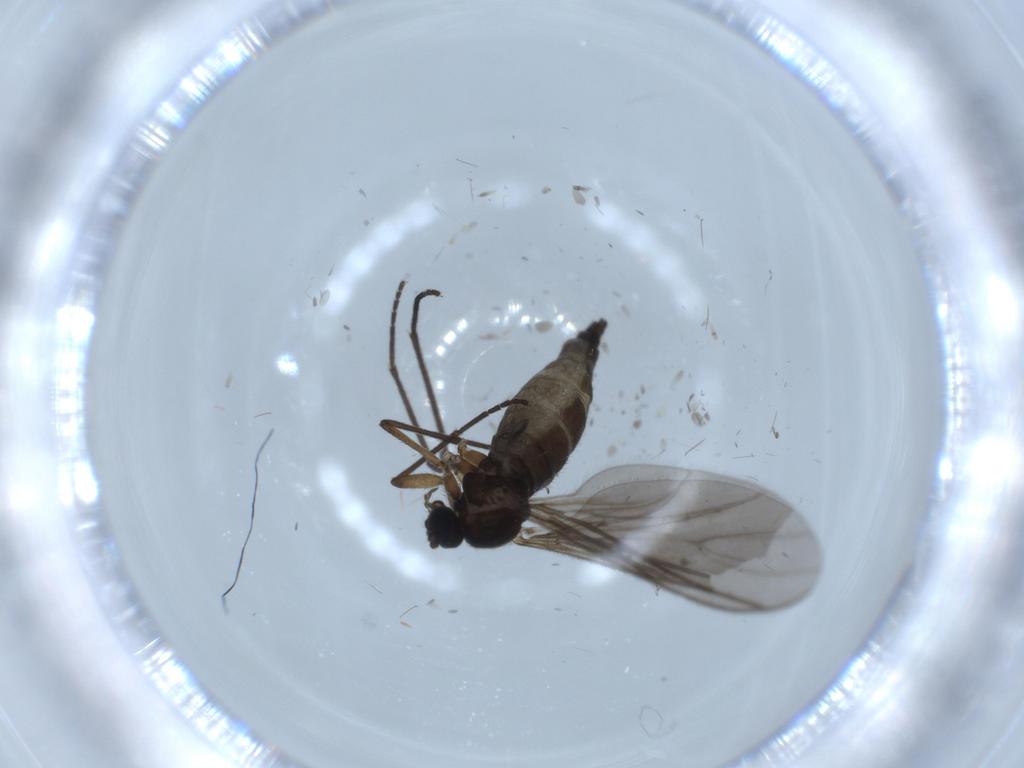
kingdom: Animalia
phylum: Arthropoda
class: Insecta
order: Diptera
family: Sciaridae
